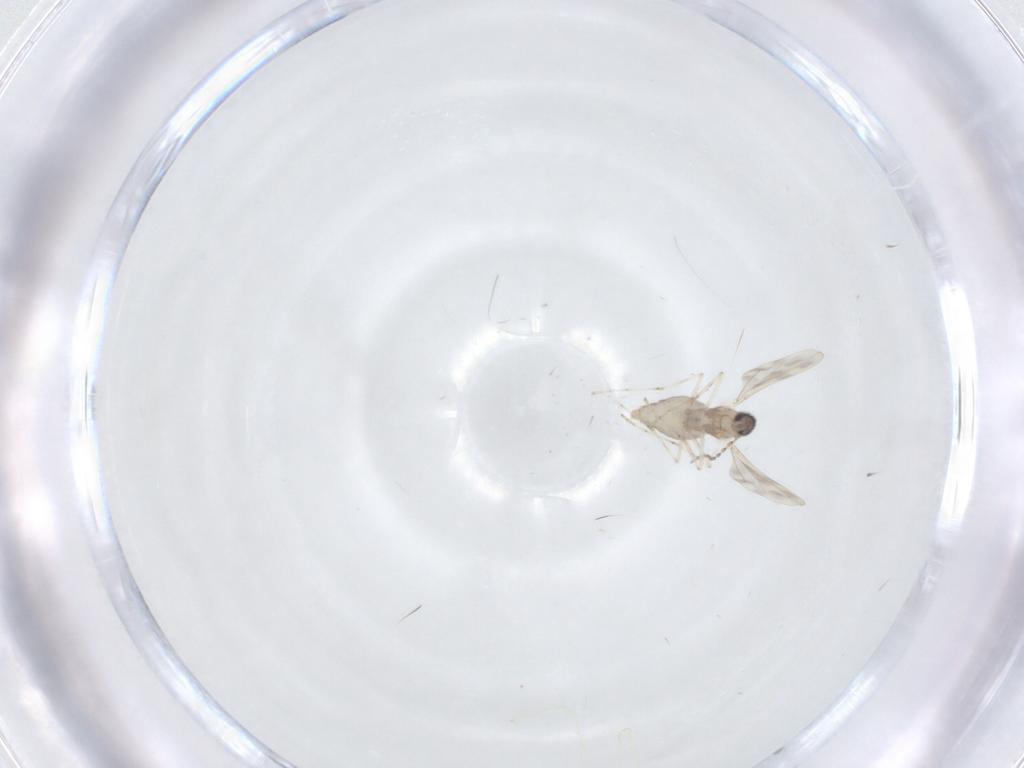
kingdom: Animalia
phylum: Arthropoda
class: Insecta
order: Diptera
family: Cecidomyiidae
